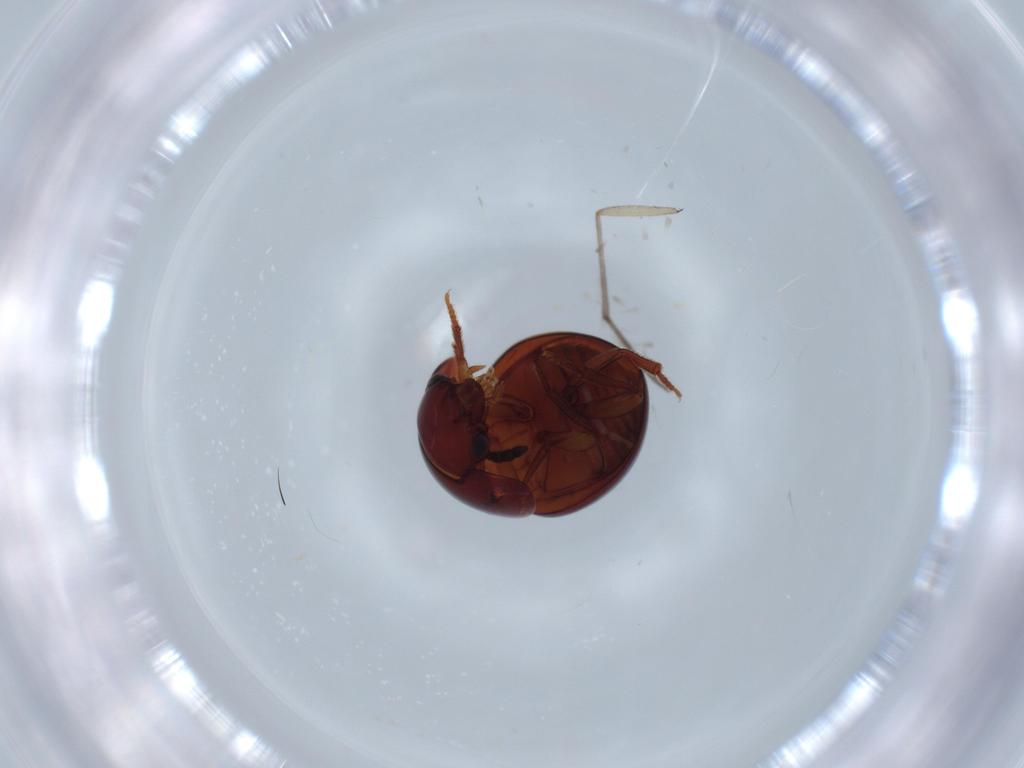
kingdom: Animalia
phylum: Arthropoda
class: Insecta
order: Coleoptera
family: Leiodidae
